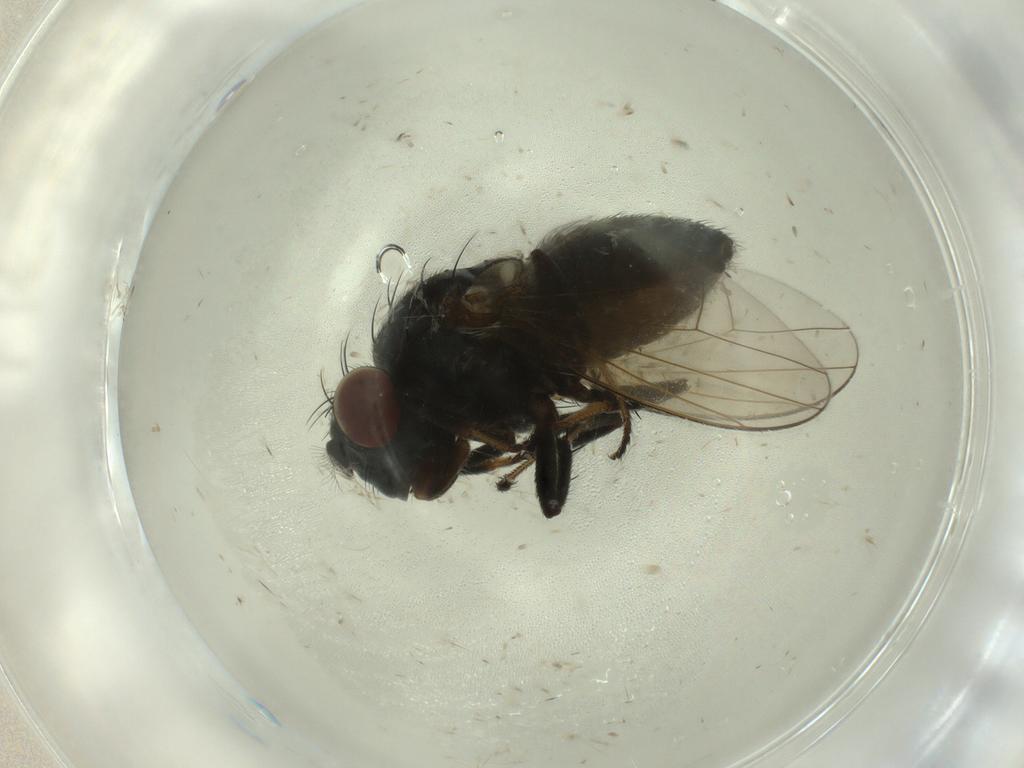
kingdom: Animalia
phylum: Arthropoda
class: Insecta
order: Diptera
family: Ephydridae
